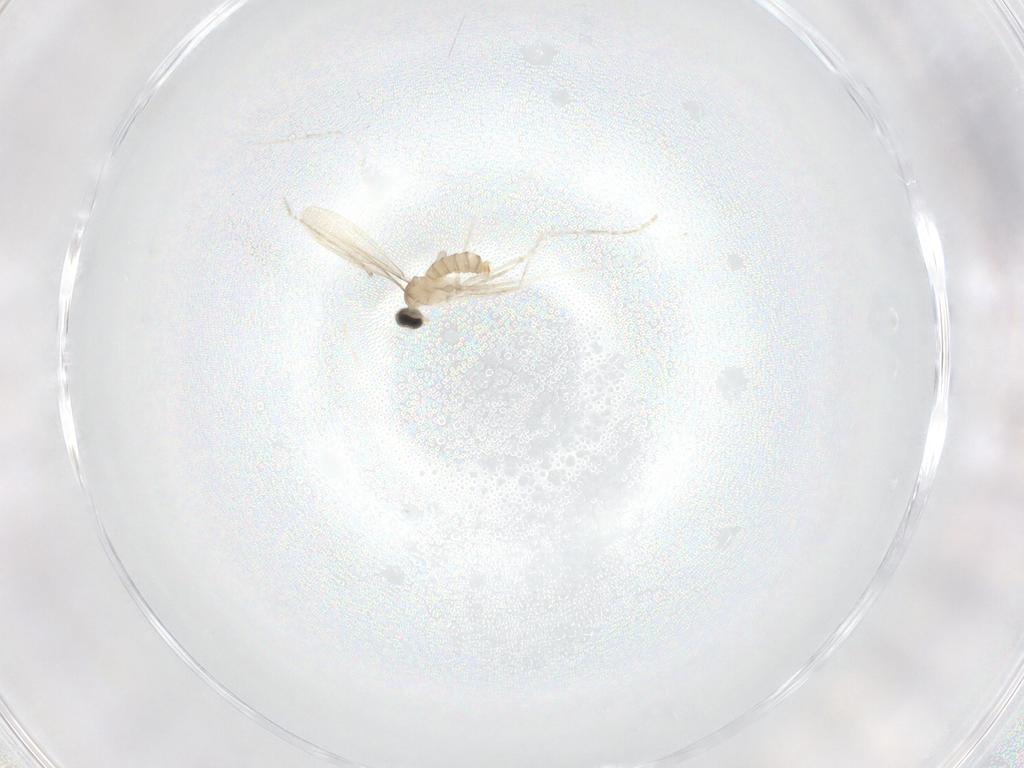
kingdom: Animalia
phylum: Arthropoda
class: Insecta
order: Diptera
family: Cecidomyiidae
